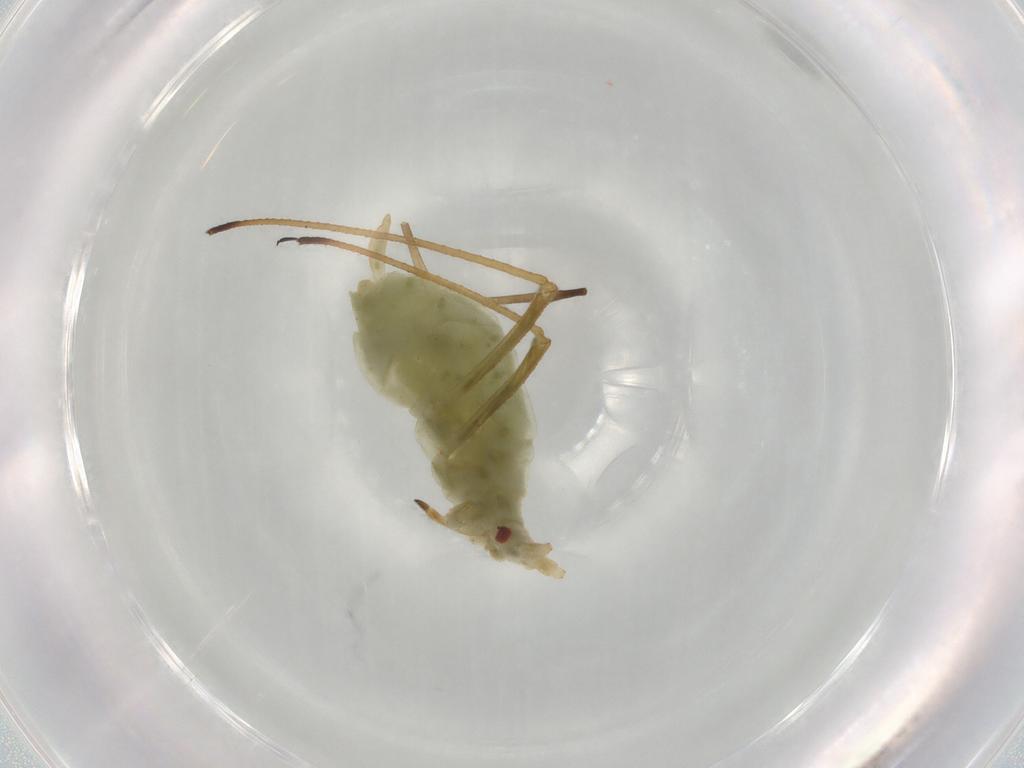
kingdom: Animalia
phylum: Arthropoda
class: Insecta
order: Hemiptera
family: Aphididae
